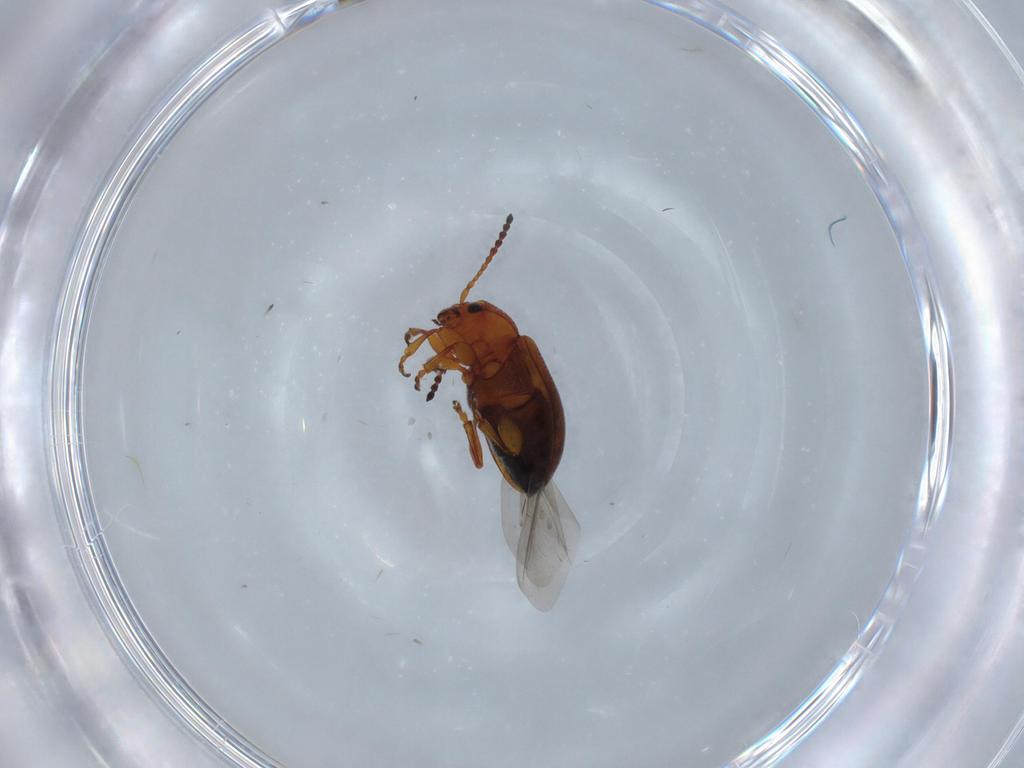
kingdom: Animalia
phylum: Arthropoda
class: Insecta
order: Coleoptera
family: Chrysomelidae
